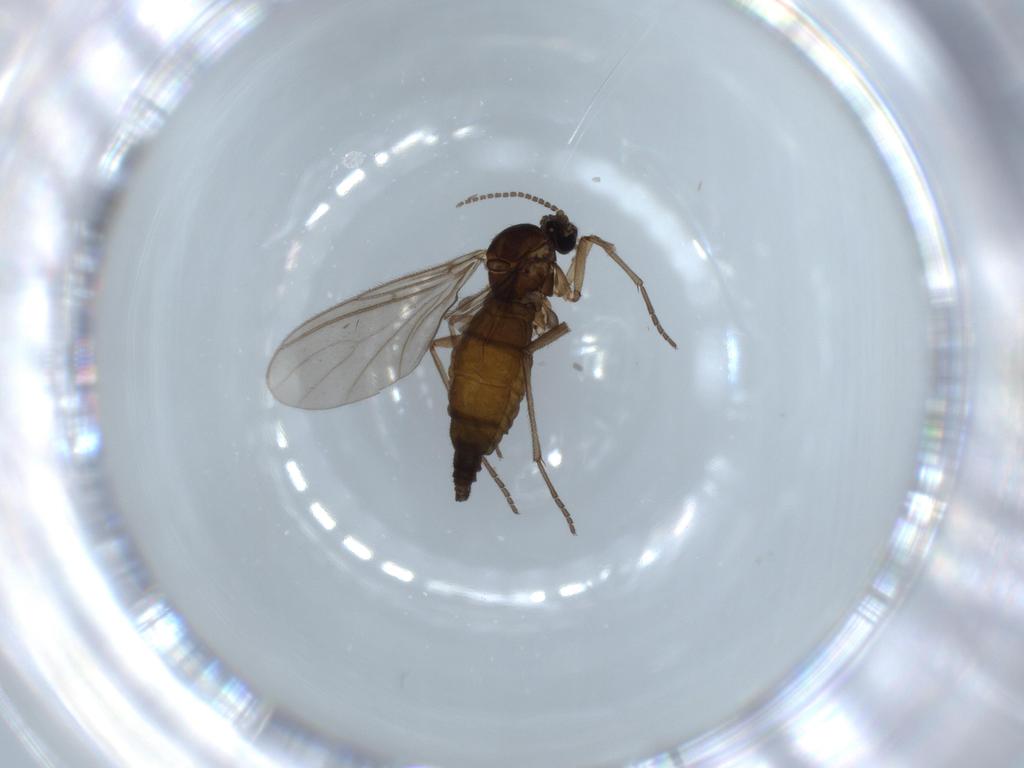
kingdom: Animalia
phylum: Arthropoda
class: Insecta
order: Diptera
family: Sciaridae
